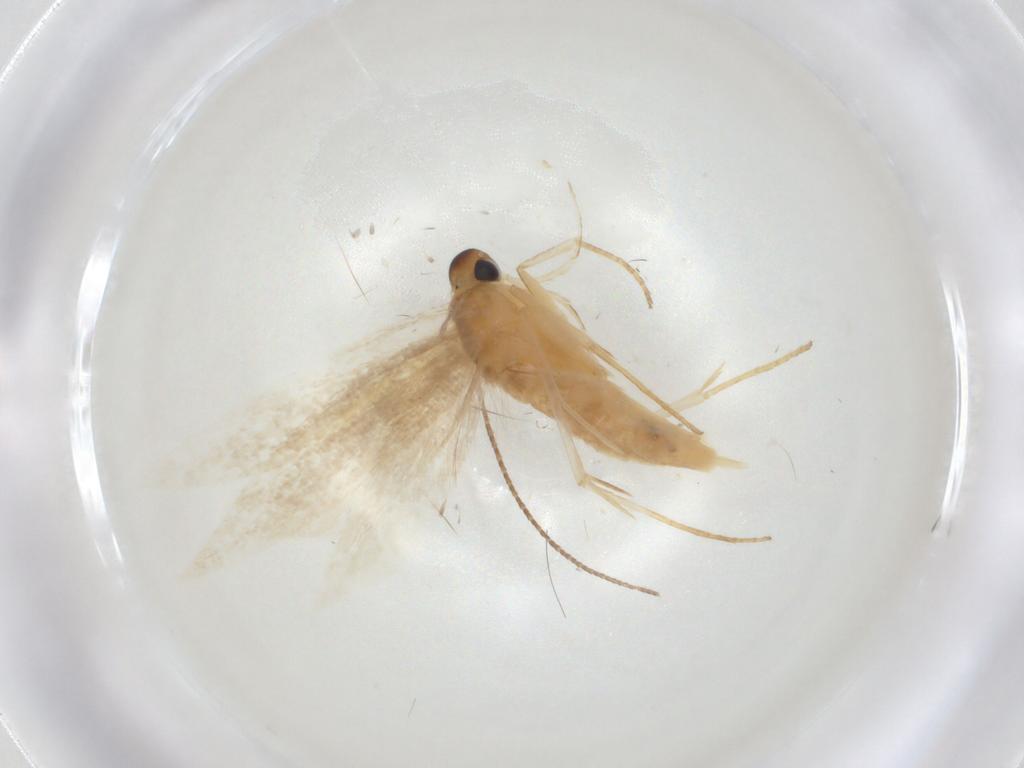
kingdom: Animalia
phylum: Arthropoda
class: Insecta
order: Lepidoptera
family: Lecithoceridae
